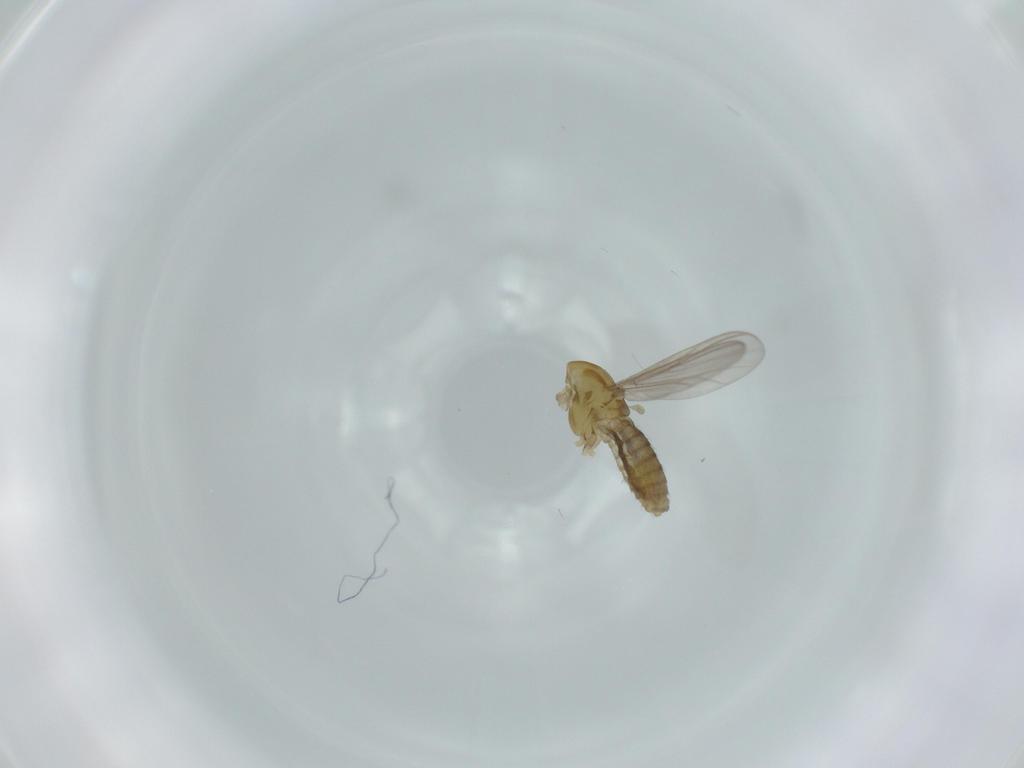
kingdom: Animalia
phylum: Arthropoda
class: Insecta
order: Diptera
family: Chironomidae
